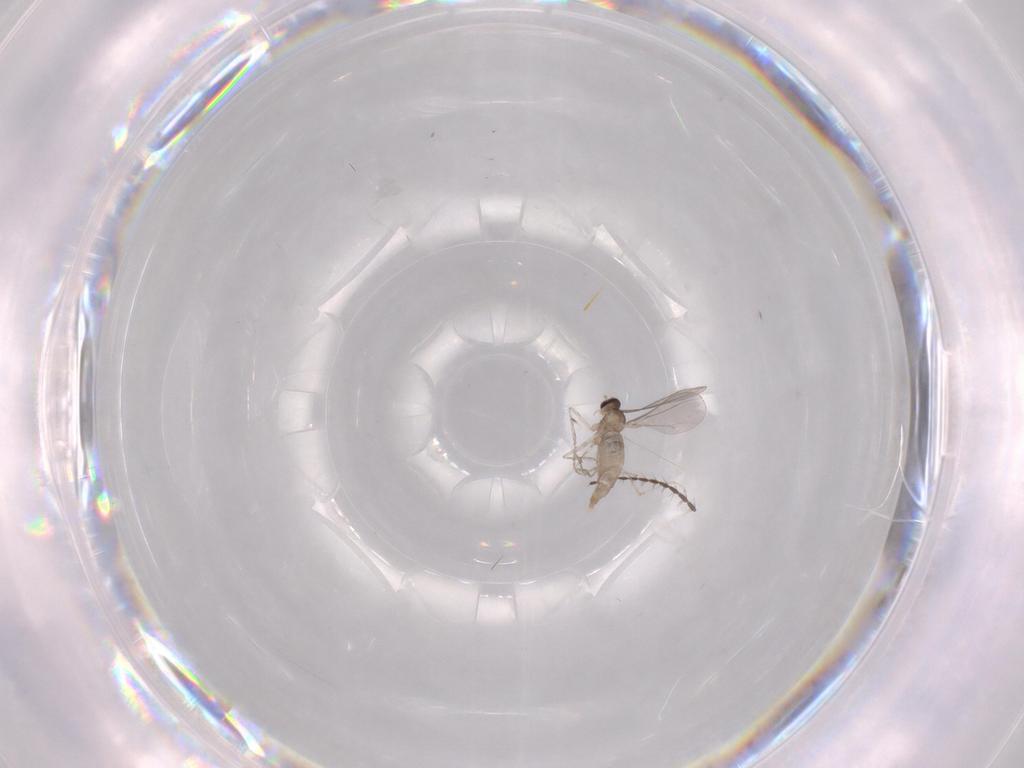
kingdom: Animalia
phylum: Arthropoda
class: Insecta
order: Diptera
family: Limoniidae
